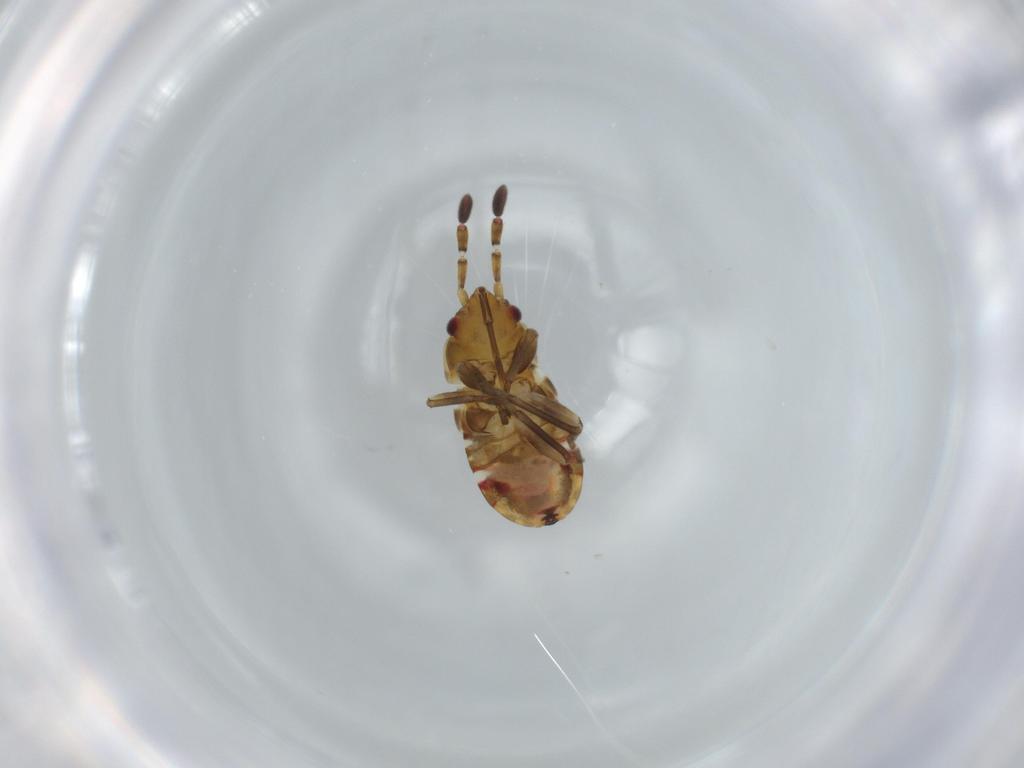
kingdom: Animalia
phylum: Arthropoda
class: Insecta
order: Hemiptera
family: Rhyparochromidae
